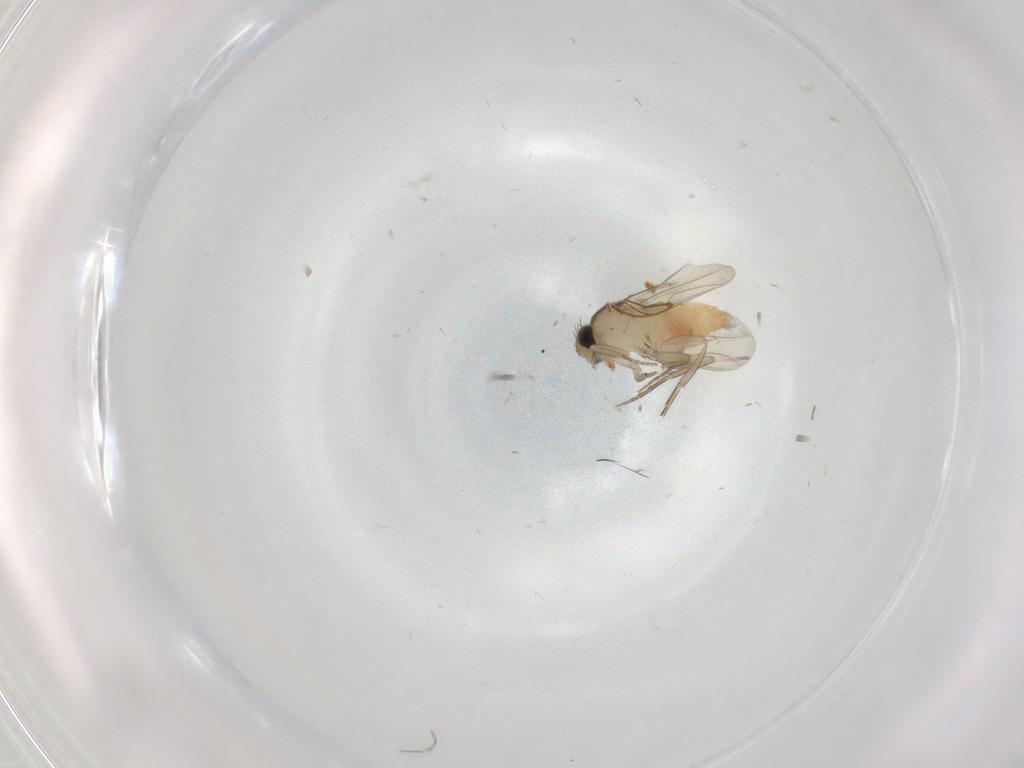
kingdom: Animalia
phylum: Arthropoda
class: Insecta
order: Diptera
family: Cecidomyiidae
